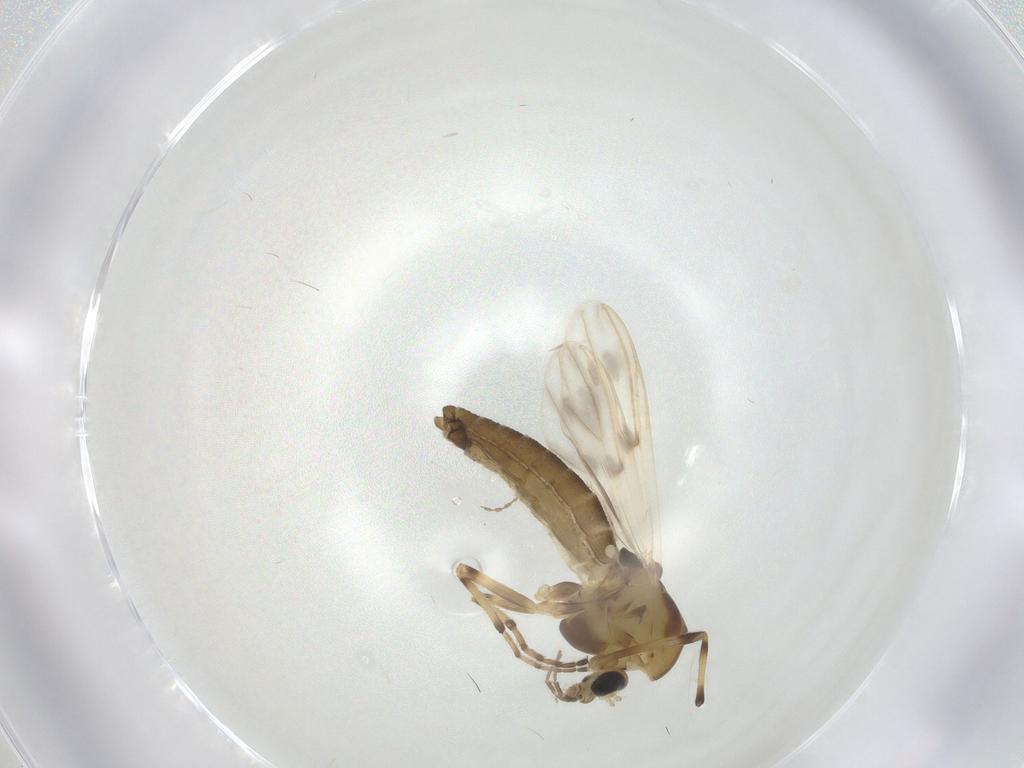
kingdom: Animalia
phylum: Arthropoda
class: Insecta
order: Diptera
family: Chironomidae
